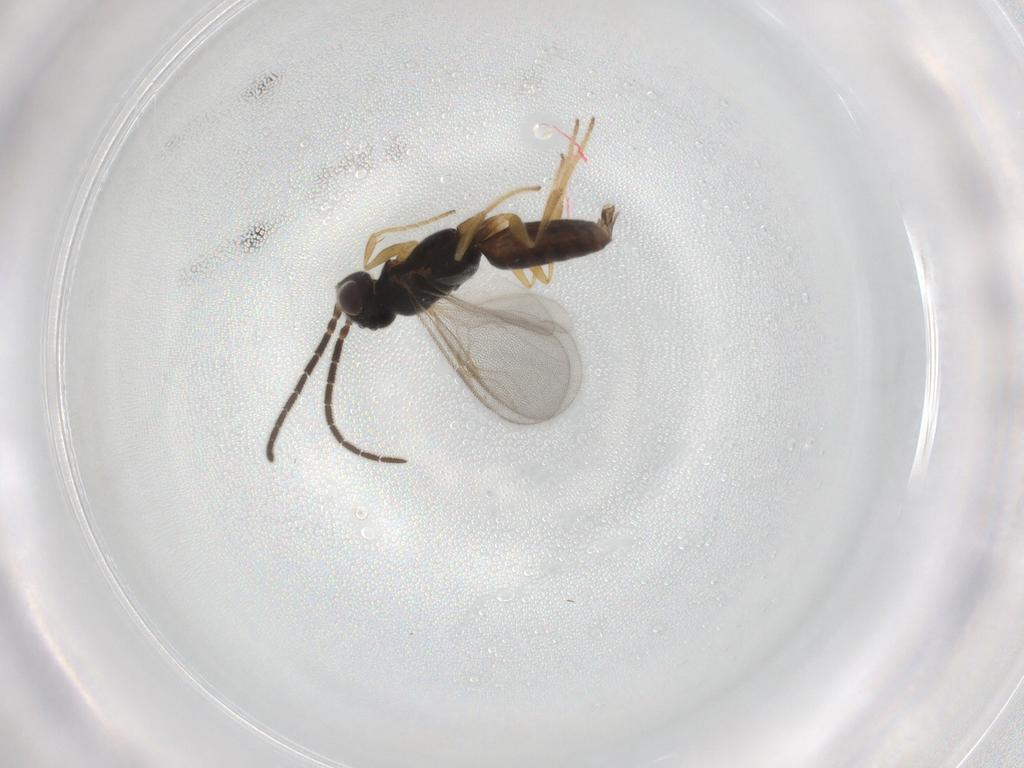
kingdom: Animalia
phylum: Arthropoda
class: Insecta
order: Hymenoptera
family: Dryinidae
